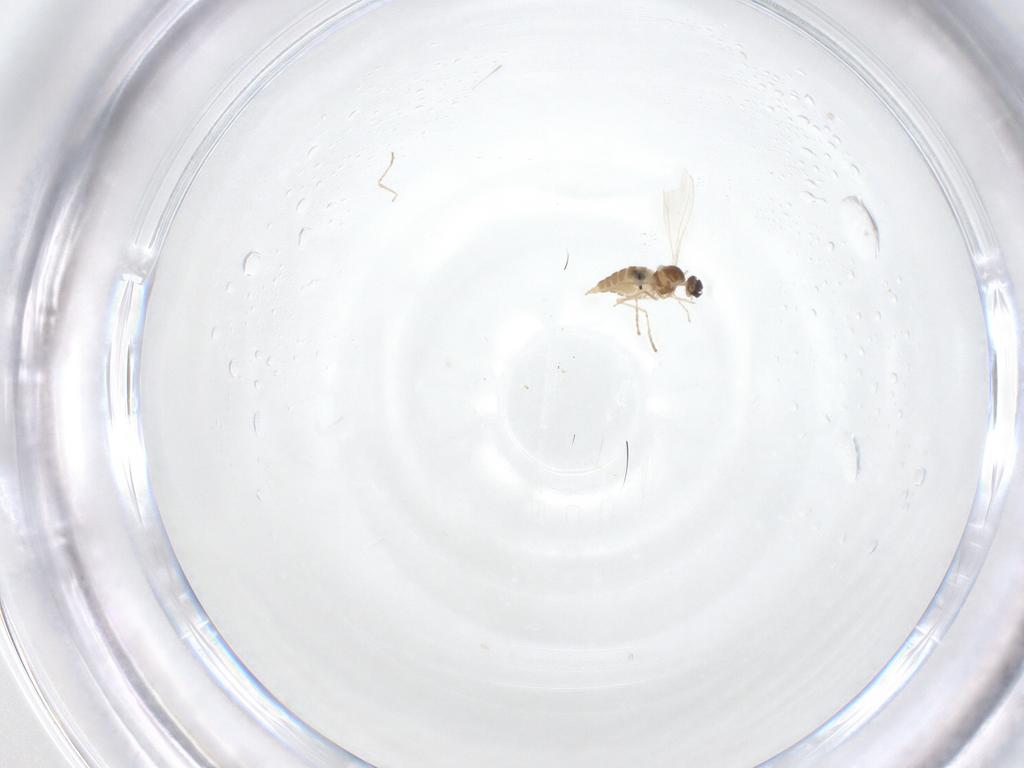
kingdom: Animalia
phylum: Arthropoda
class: Insecta
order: Diptera
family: Cecidomyiidae
